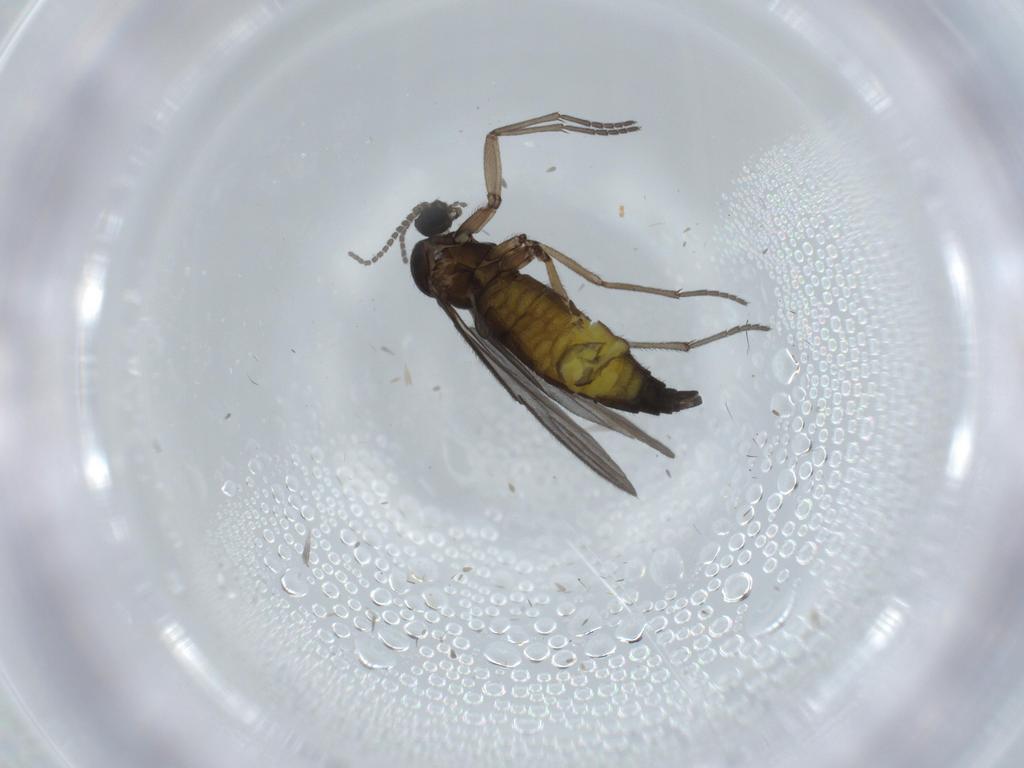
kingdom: Animalia
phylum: Arthropoda
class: Insecta
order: Diptera
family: Sciaridae
